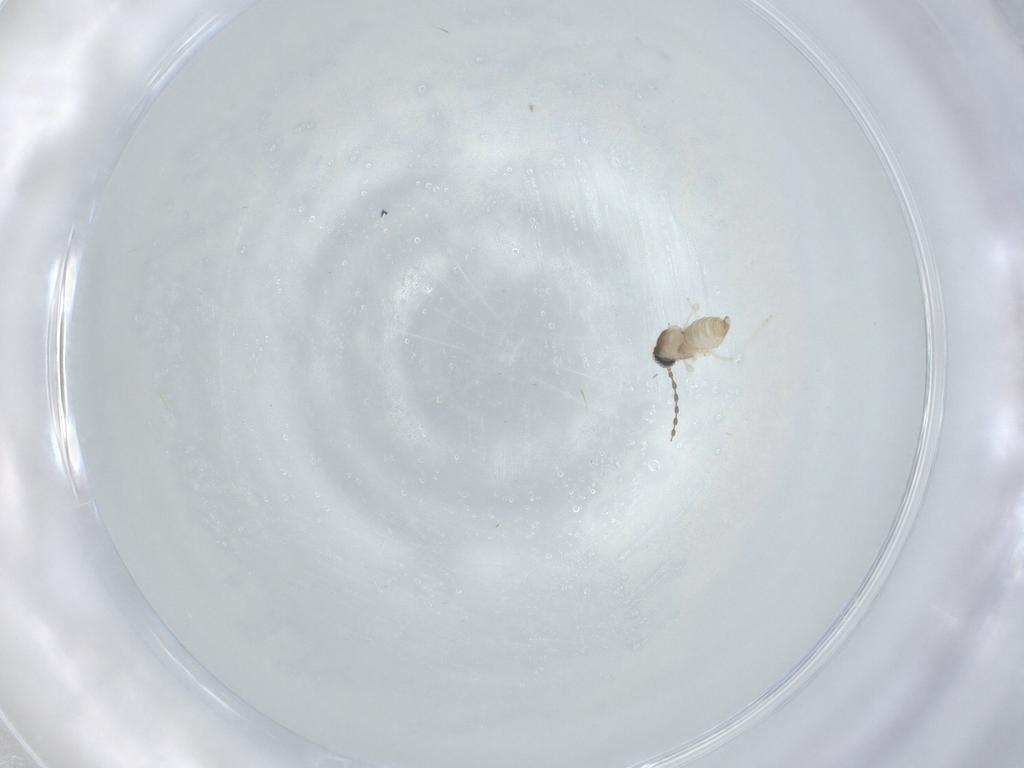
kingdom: Animalia
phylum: Arthropoda
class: Insecta
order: Diptera
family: Cecidomyiidae
